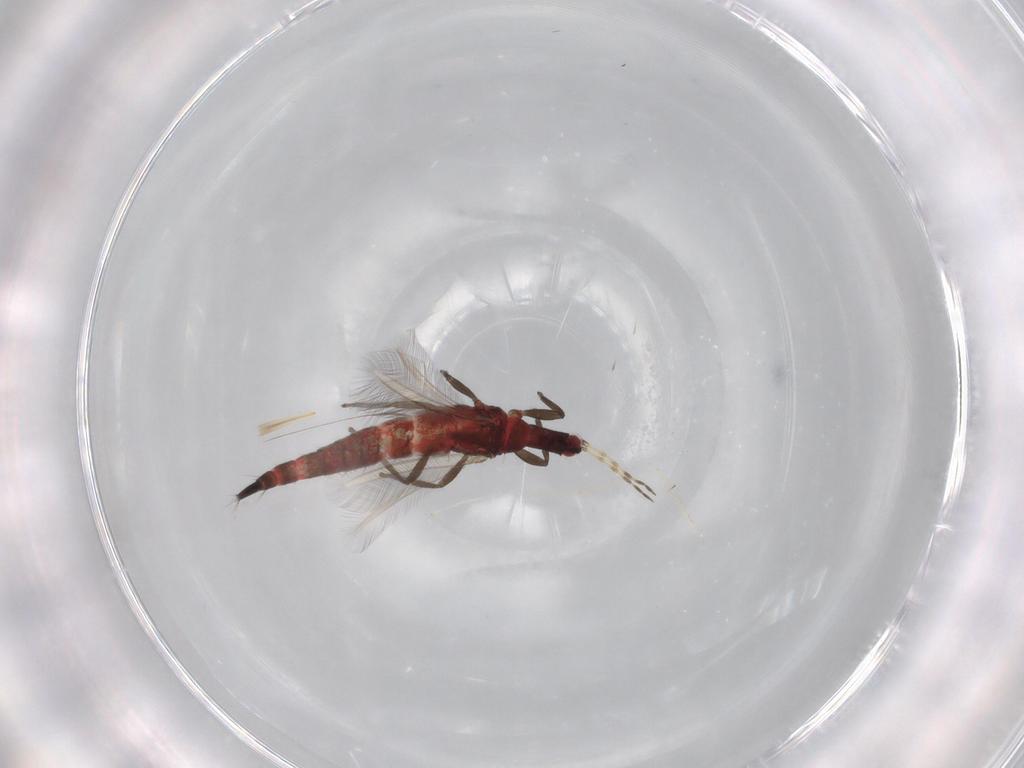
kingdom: Animalia
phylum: Arthropoda
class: Insecta
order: Thysanoptera
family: Phlaeothripidae
